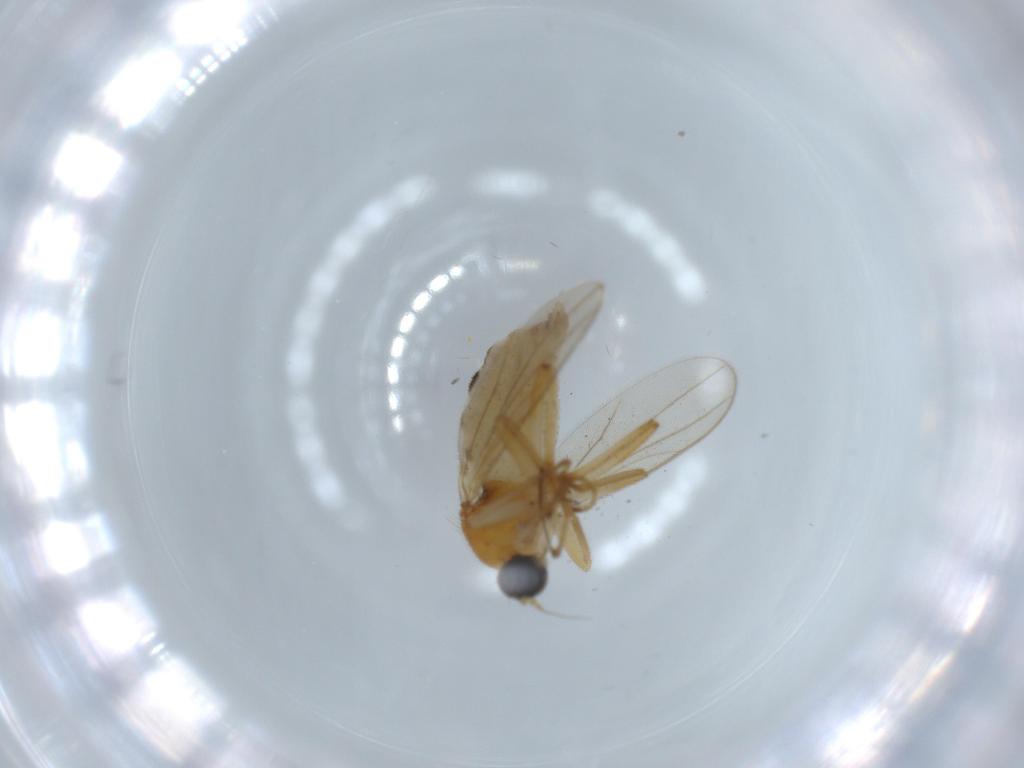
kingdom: Animalia
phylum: Arthropoda
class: Insecta
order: Diptera
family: Hybotidae
